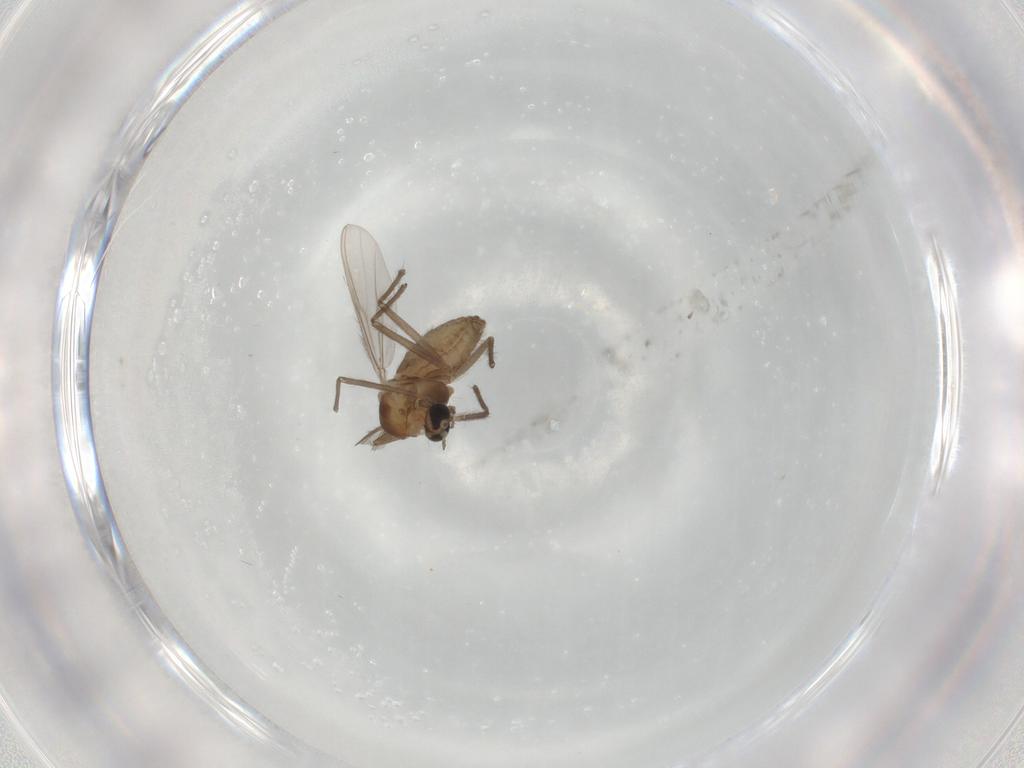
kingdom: Animalia
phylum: Arthropoda
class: Insecta
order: Diptera
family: Chironomidae
